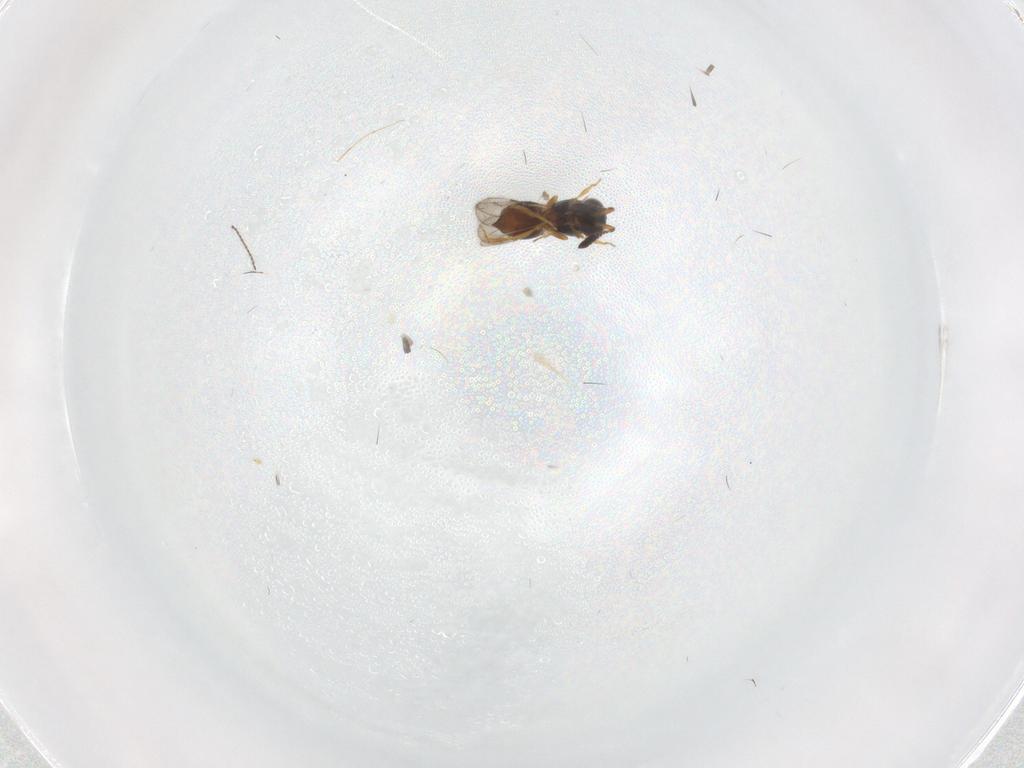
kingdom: Animalia
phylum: Arthropoda
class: Insecta
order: Hymenoptera
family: Ceraphronidae
